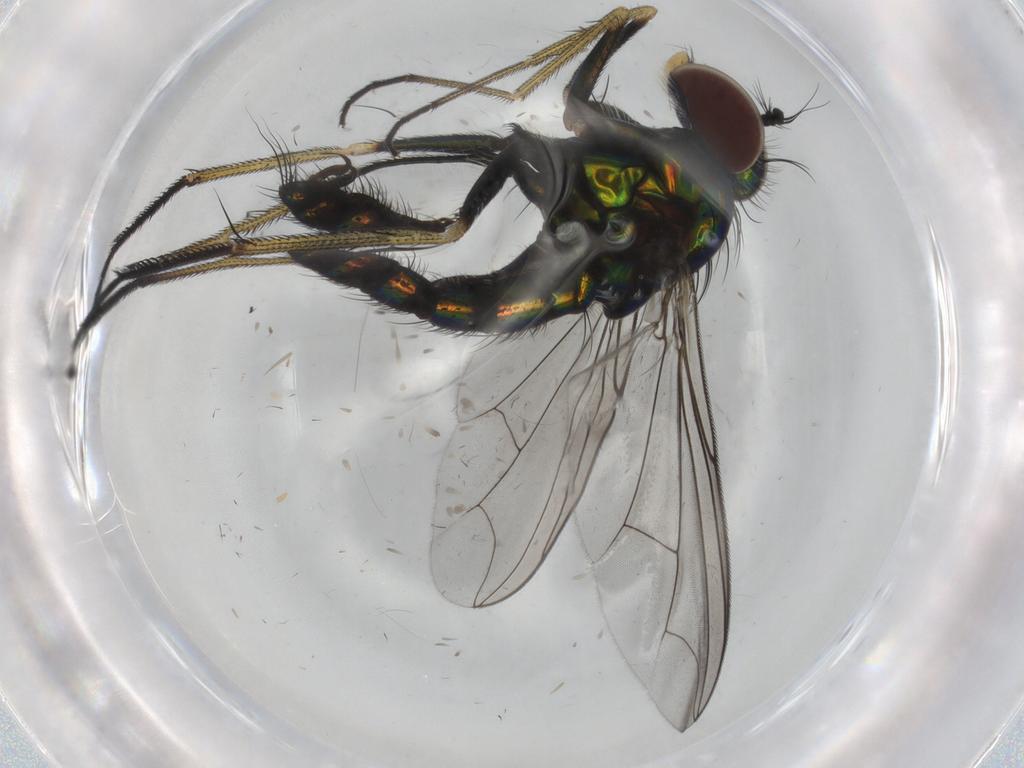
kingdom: Animalia
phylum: Arthropoda
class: Insecta
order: Diptera
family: Dolichopodidae
